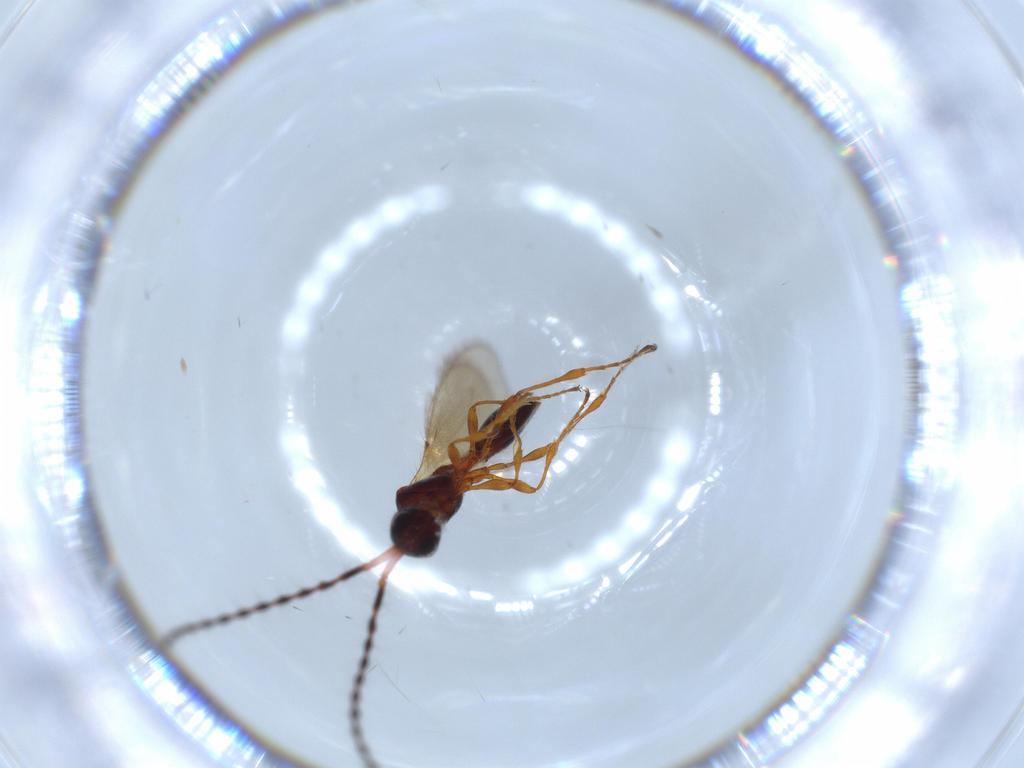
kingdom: Animalia
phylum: Arthropoda
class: Insecta
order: Hymenoptera
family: Diapriidae
